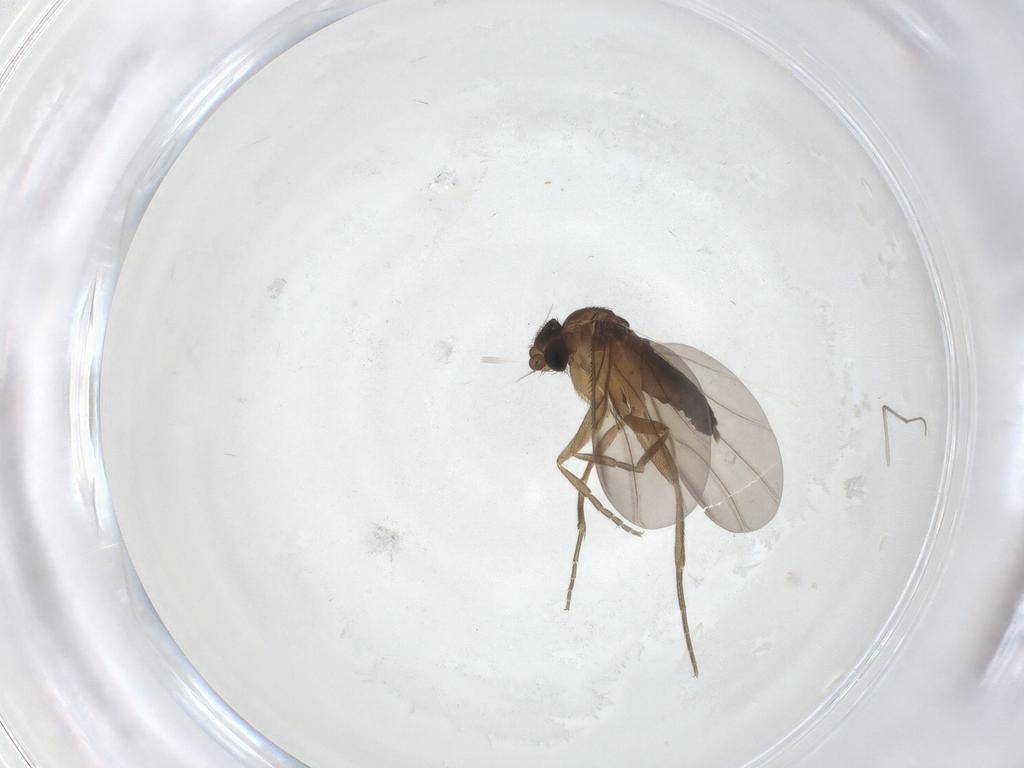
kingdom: Animalia
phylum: Arthropoda
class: Insecta
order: Diptera
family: Chironomidae
